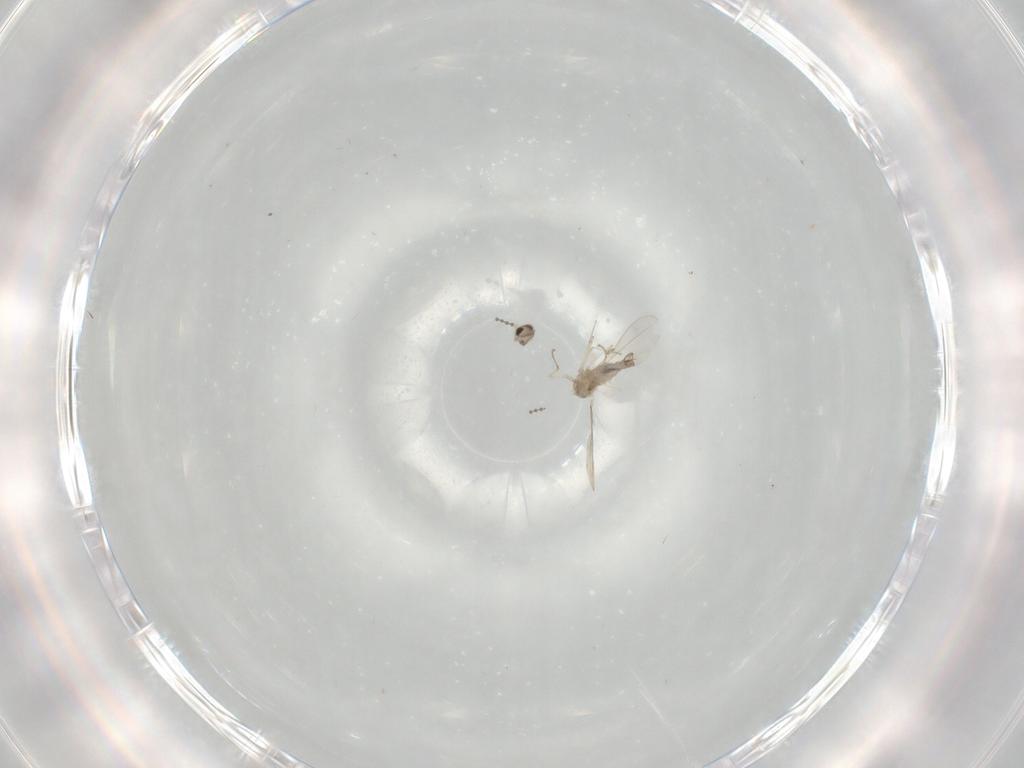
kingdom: Animalia
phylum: Arthropoda
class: Insecta
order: Diptera
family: Cecidomyiidae
